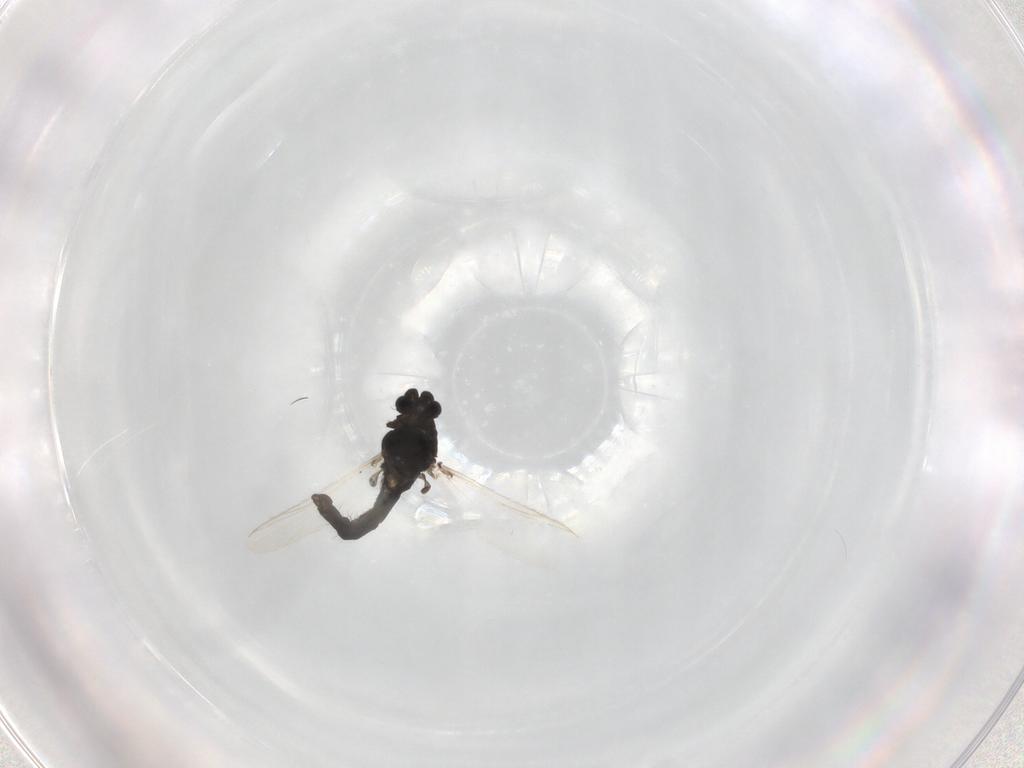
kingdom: Animalia
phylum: Arthropoda
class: Insecta
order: Diptera
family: Chironomidae
